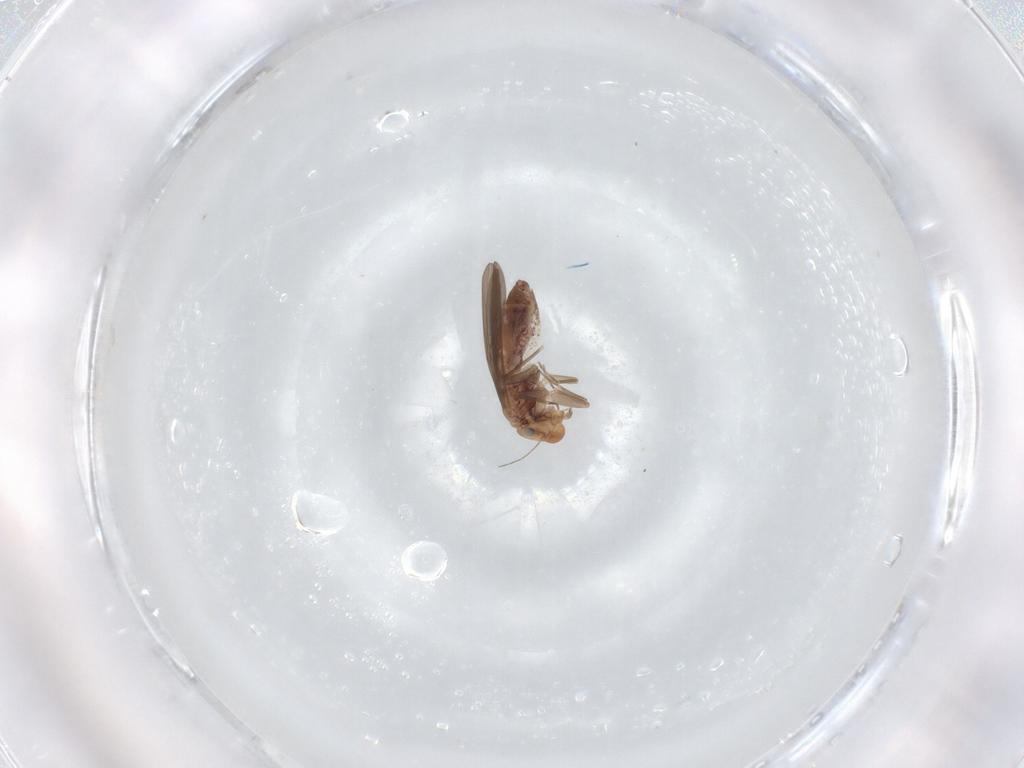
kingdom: Animalia
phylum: Arthropoda
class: Insecta
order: Psocodea
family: Lepidopsocidae
